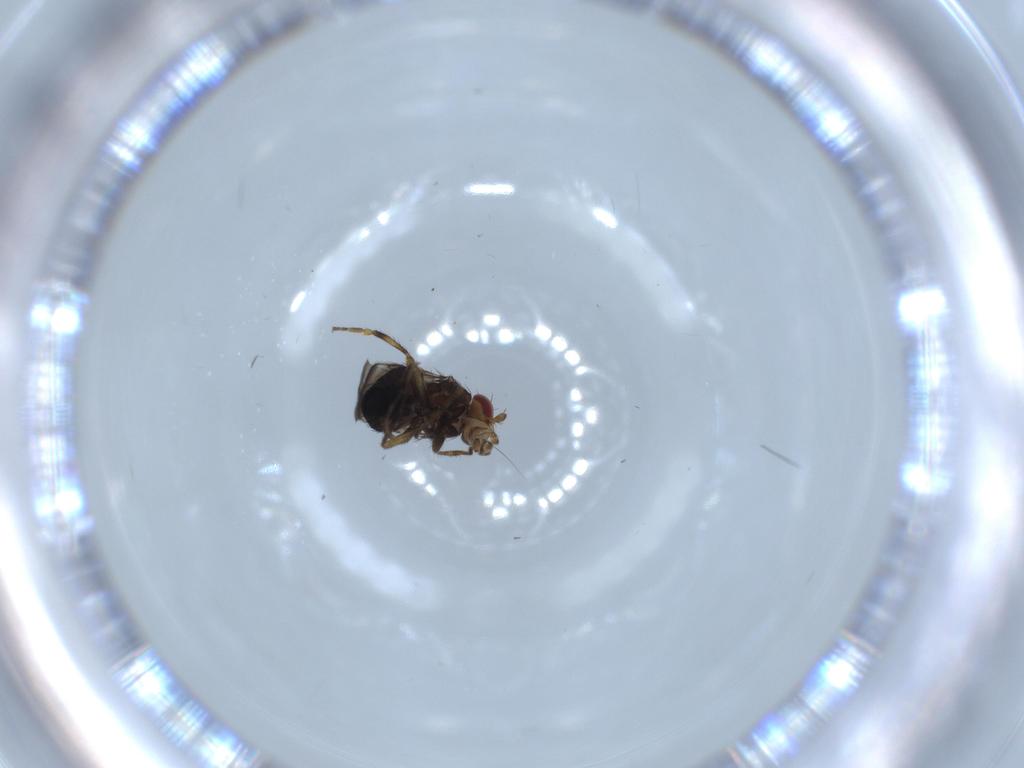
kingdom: Animalia
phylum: Arthropoda
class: Insecta
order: Diptera
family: Sphaeroceridae
